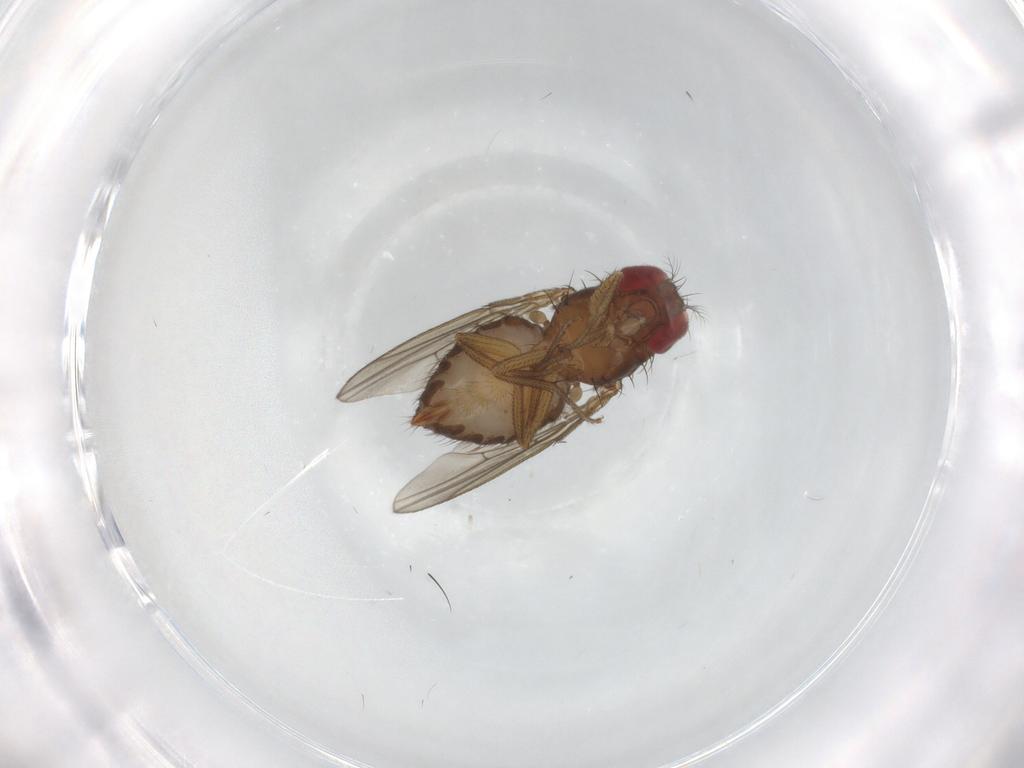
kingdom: Animalia
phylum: Arthropoda
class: Insecta
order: Diptera
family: Drosophilidae
